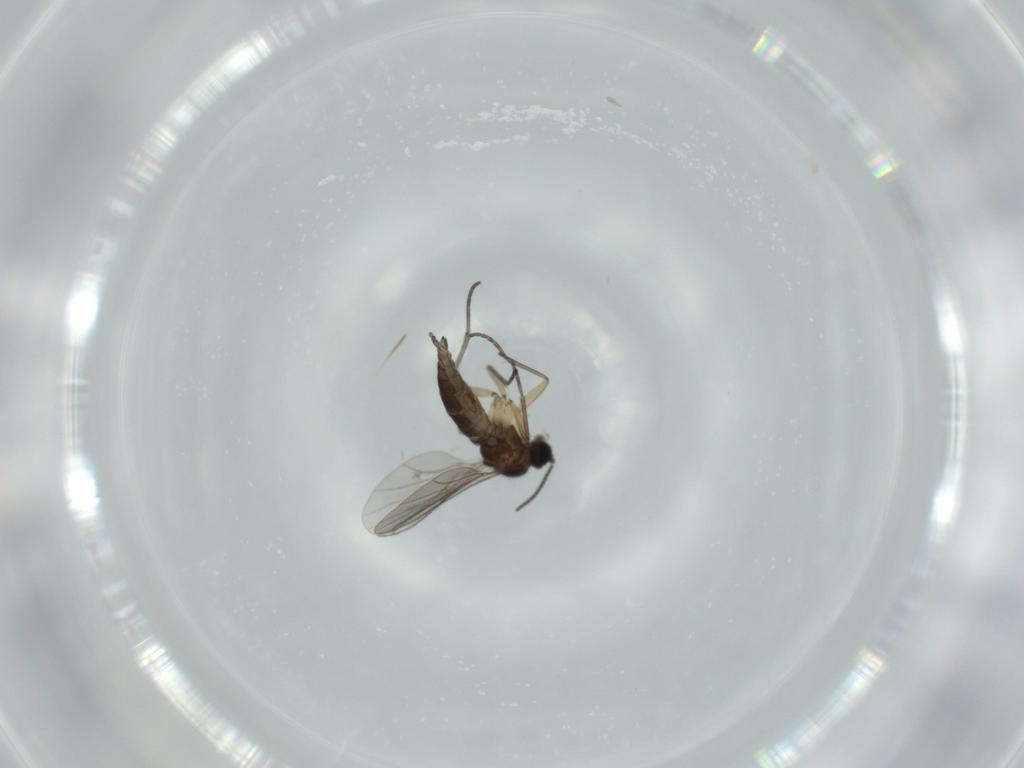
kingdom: Animalia
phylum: Arthropoda
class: Insecta
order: Diptera
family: Sciaridae
